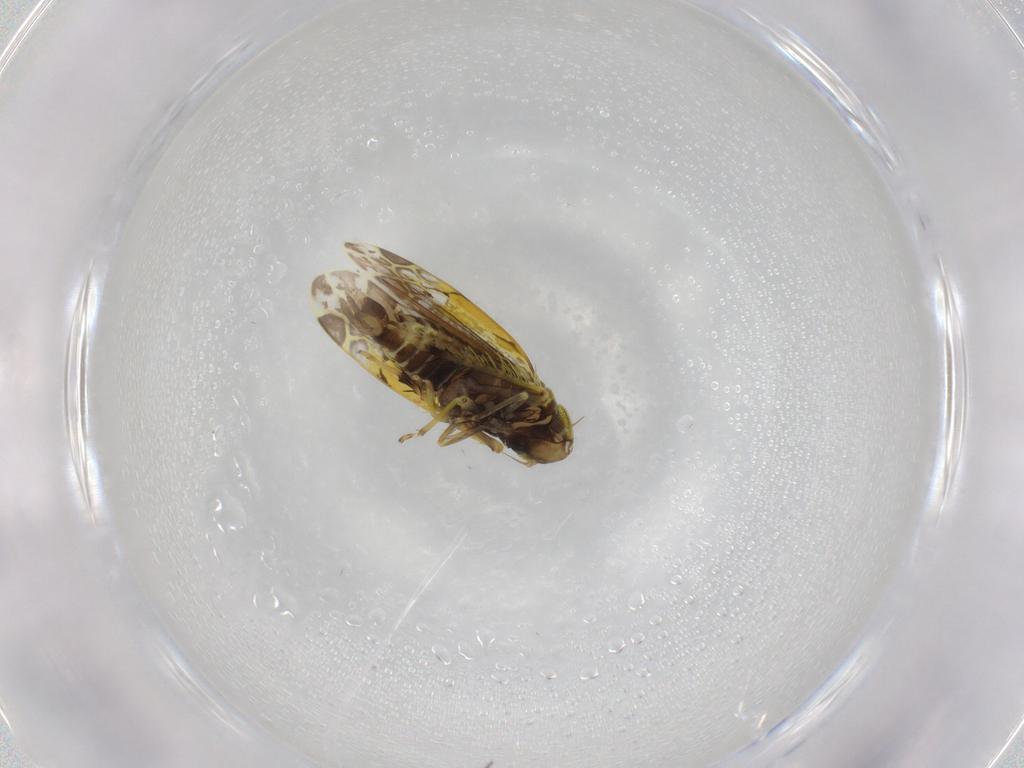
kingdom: Animalia
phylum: Arthropoda
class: Insecta
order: Hemiptera
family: Cicadellidae
